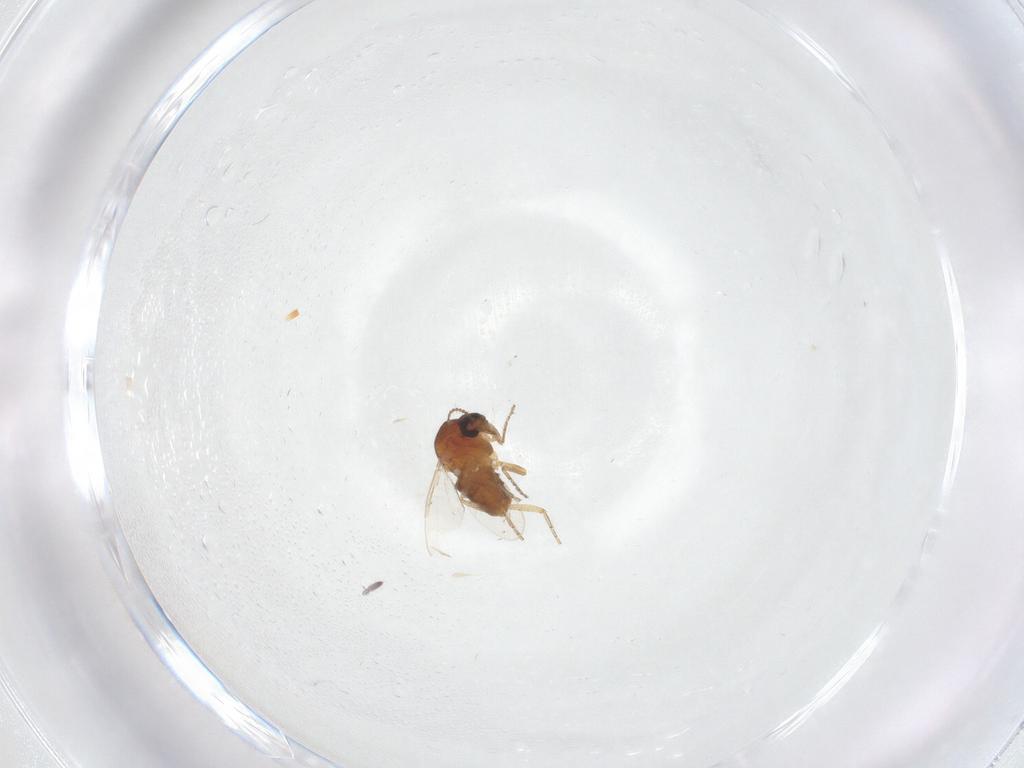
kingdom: Animalia
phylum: Arthropoda
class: Insecta
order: Diptera
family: Ceratopogonidae
